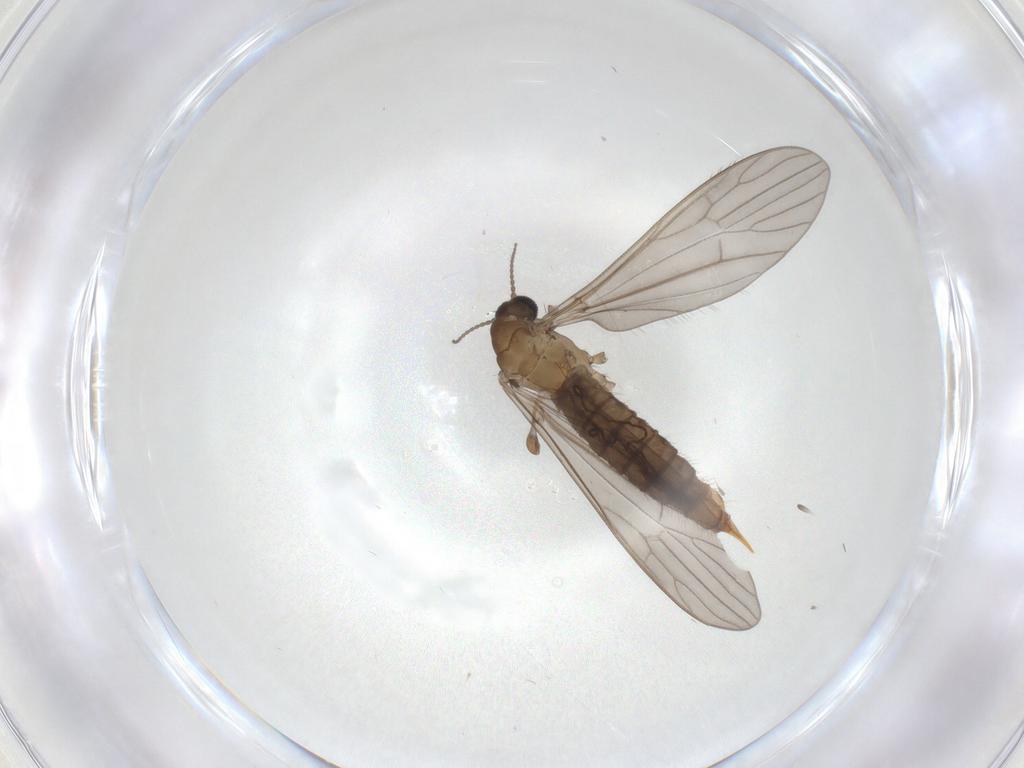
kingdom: Animalia
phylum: Arthropoda
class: Insecta
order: Diptera
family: Limoniidae
